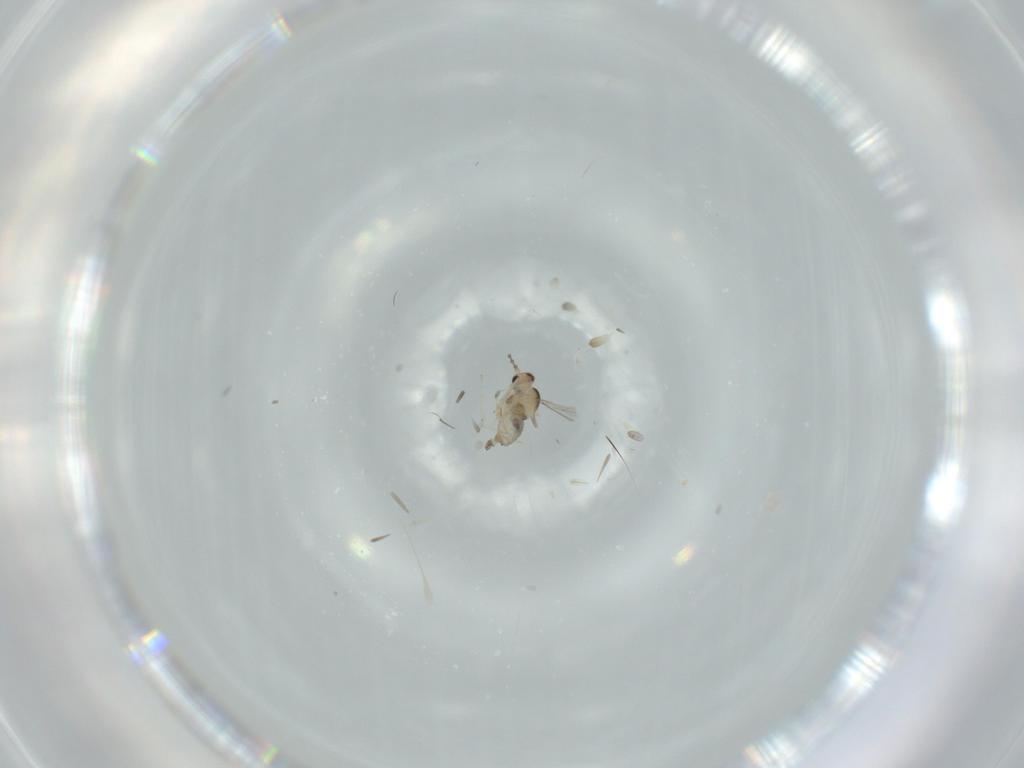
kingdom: Animalia
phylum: Arthropoda
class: Insecta
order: Diptera
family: Cecidomyiidae
